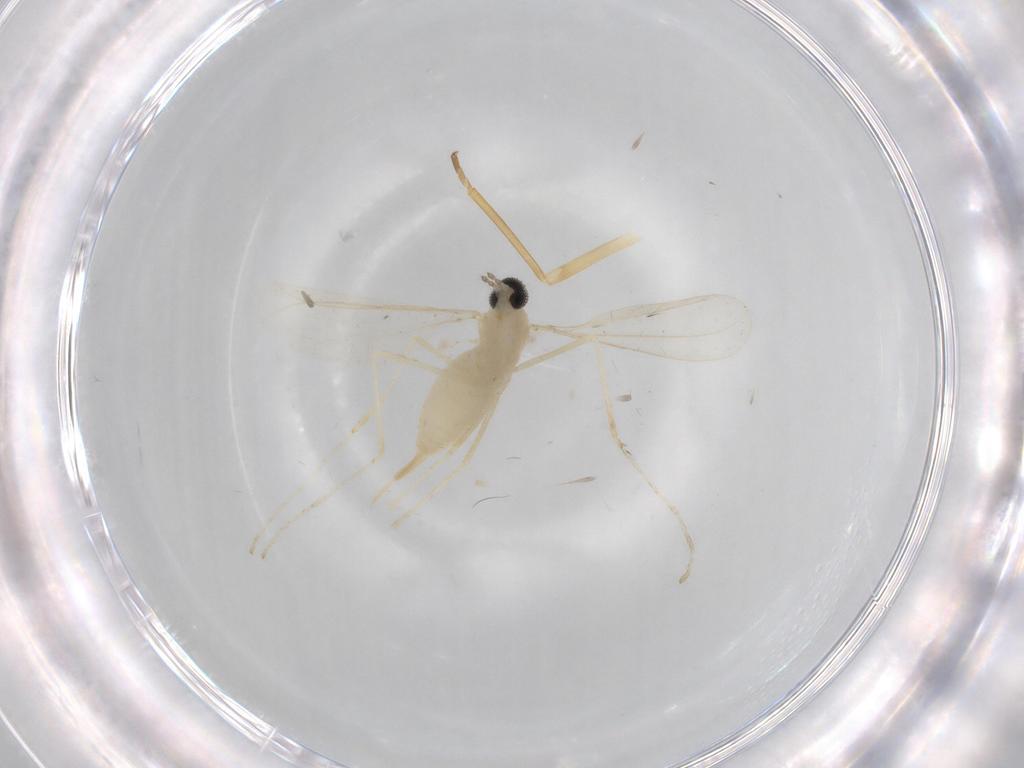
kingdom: Animalia
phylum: Arthropoda
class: Insecta
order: Diptera
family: Cecidomyiidae
